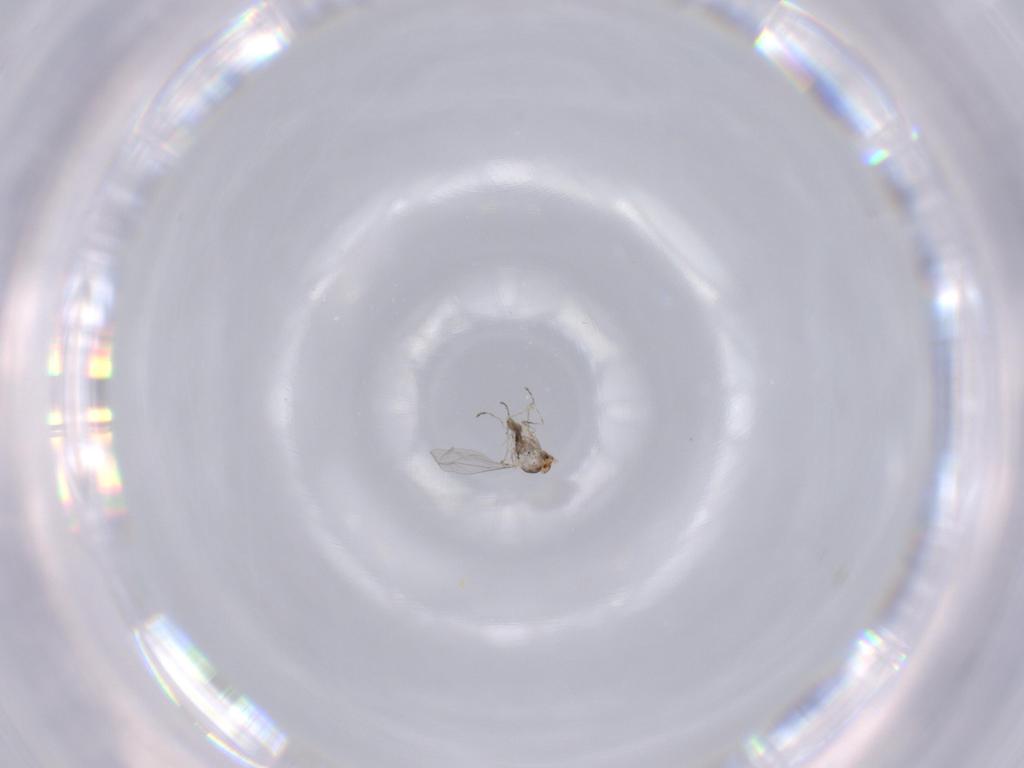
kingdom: Animalia
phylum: Arthropoda
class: Insecta
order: Diptera
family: Cecidomyiidae
